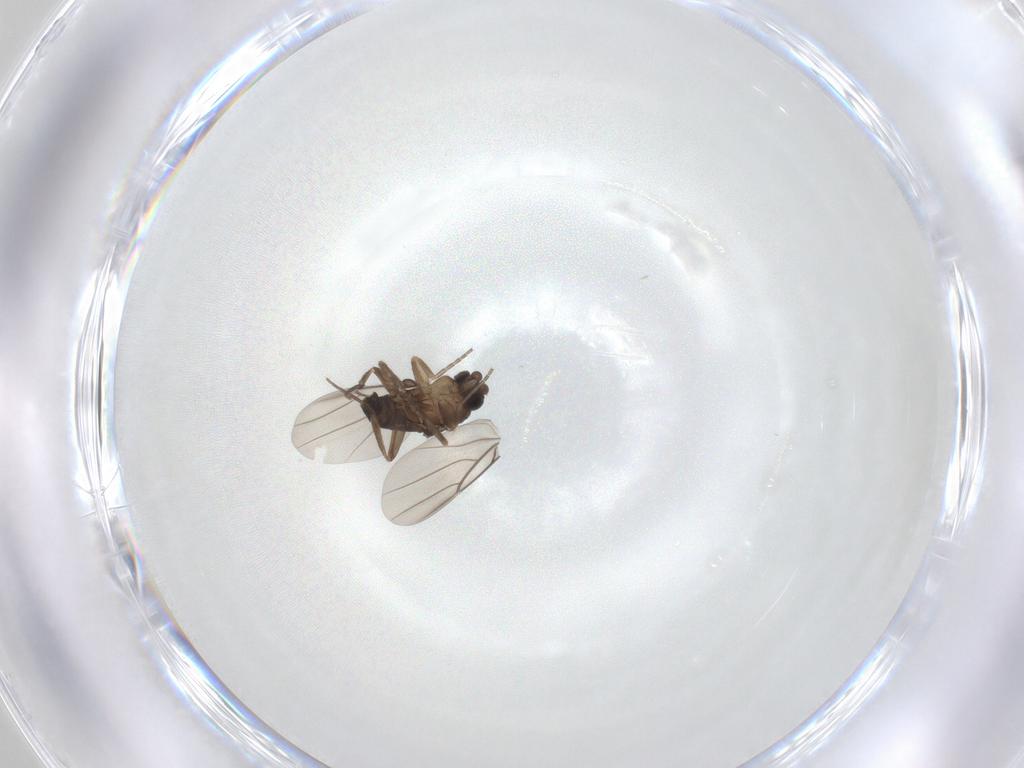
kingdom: Animalia
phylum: Arthropoda
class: Insecta
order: Diptera
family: Phoridae
